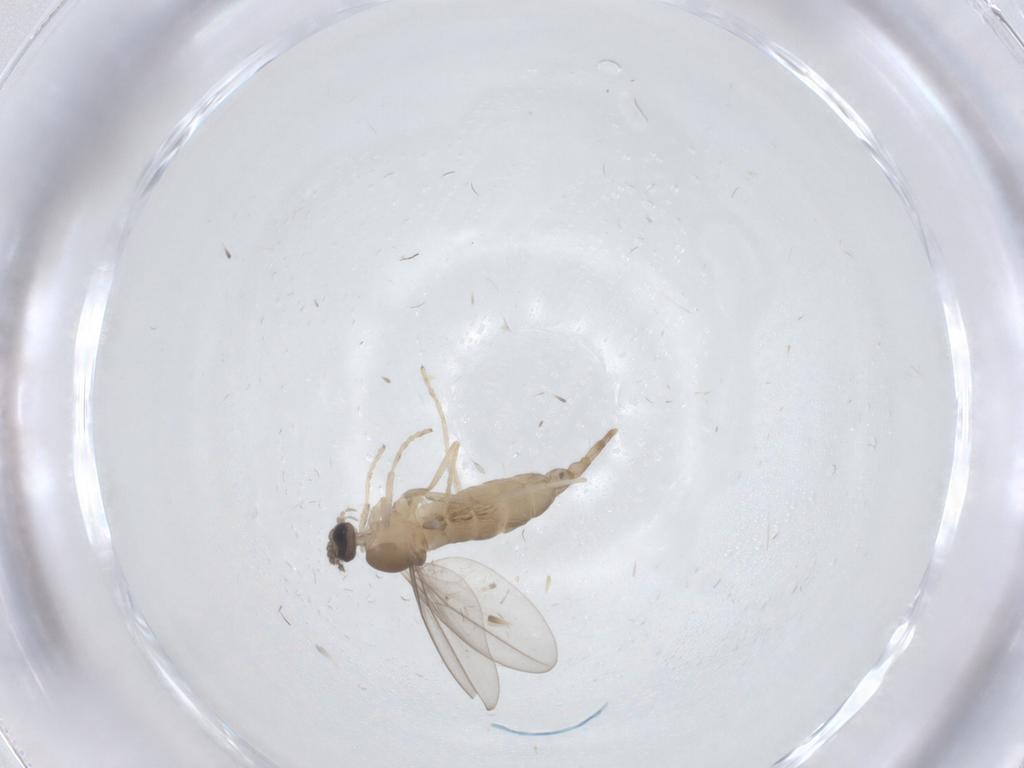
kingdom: Animalia
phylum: Arthropoda
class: Insecta
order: Diptera
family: Cecidomyiidae
